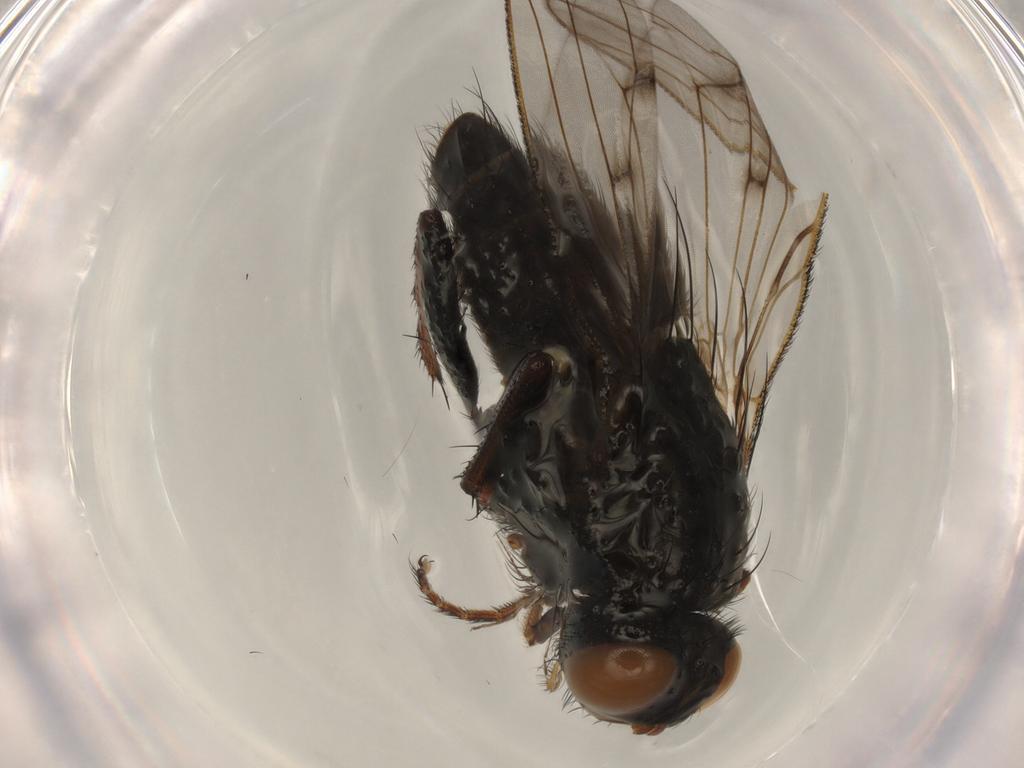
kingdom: Animalia
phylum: Arthropoda
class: Insecta
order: Diptera
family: Muscidae
